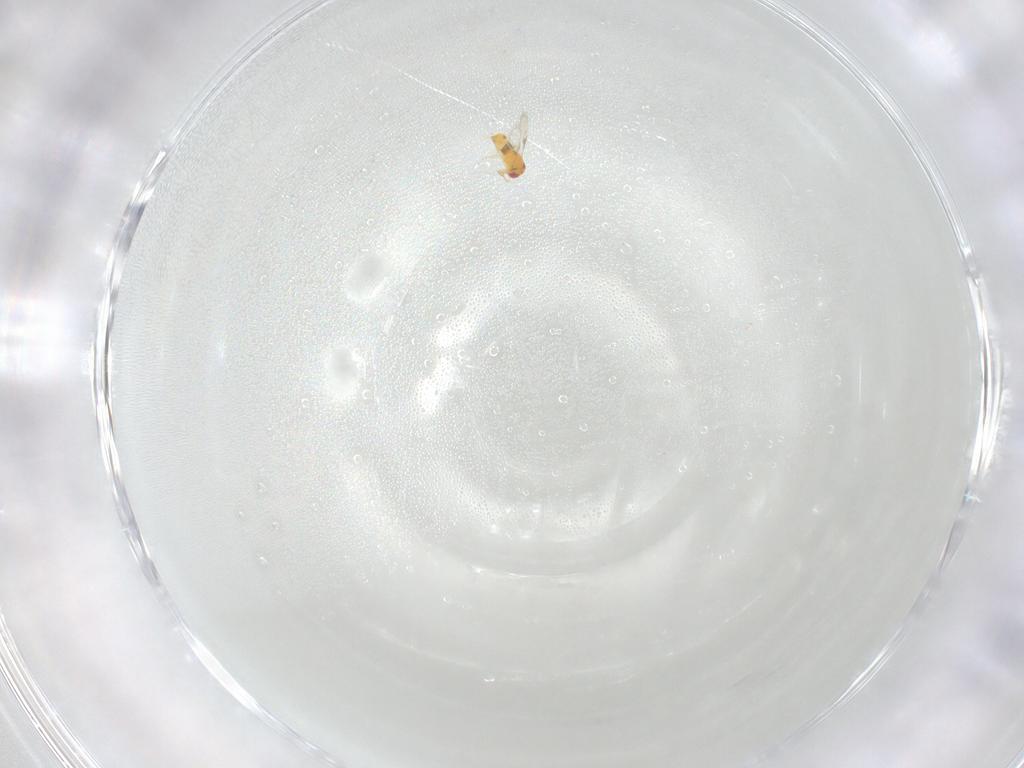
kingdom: Animalia
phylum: Arthropoda
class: Insecta
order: Hymenoptera
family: Trichogrammatidae
